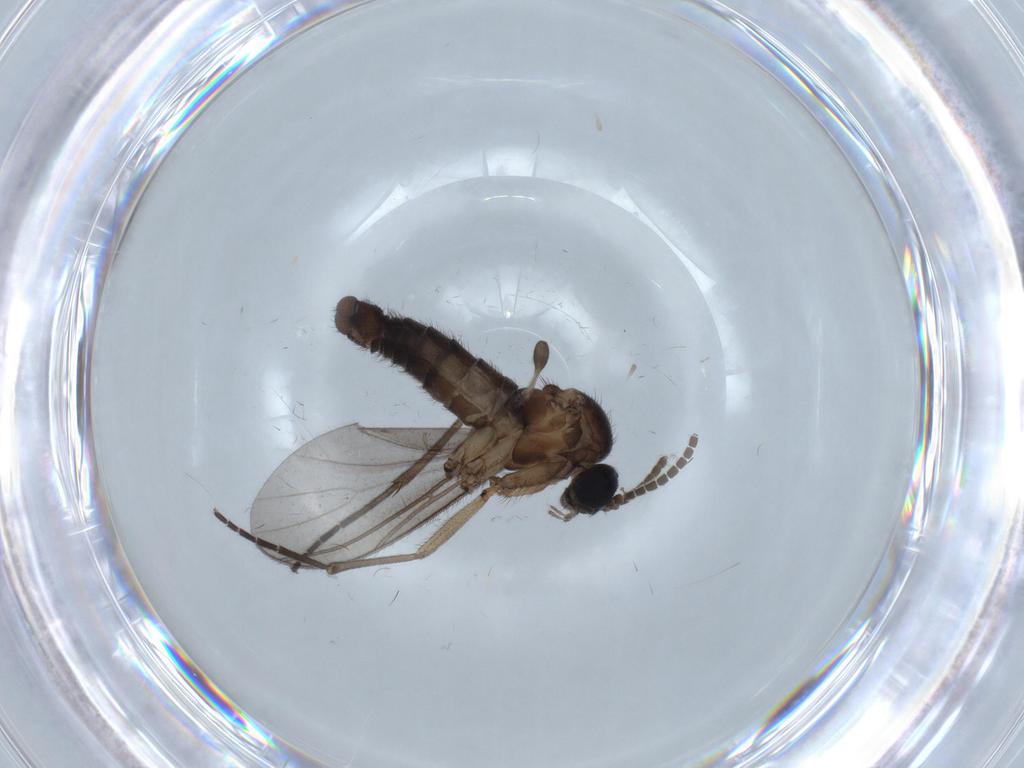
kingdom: Animalia
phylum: Arthropoda
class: Insecta
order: Diptera
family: Cecidomyiidae
